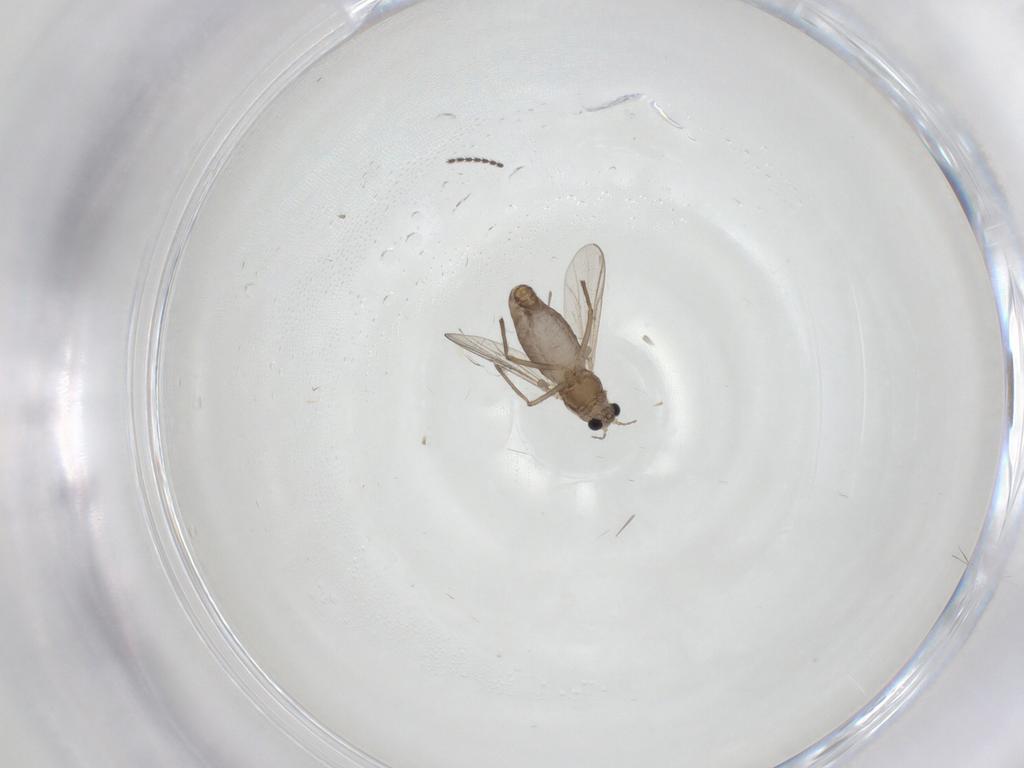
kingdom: Animalia
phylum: Arthropoda
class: Insecta
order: Diptera
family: Chironomidae
